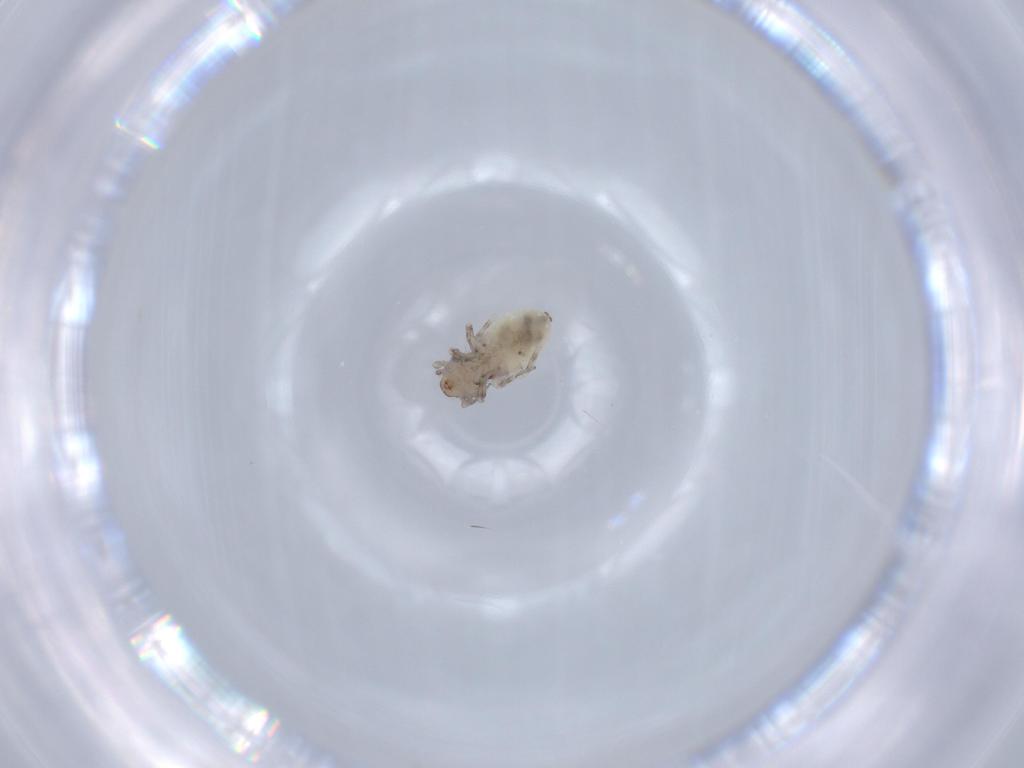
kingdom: Animalia
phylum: Arthropoda
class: Insecta
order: Psocodea
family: Lepidopsocidae
